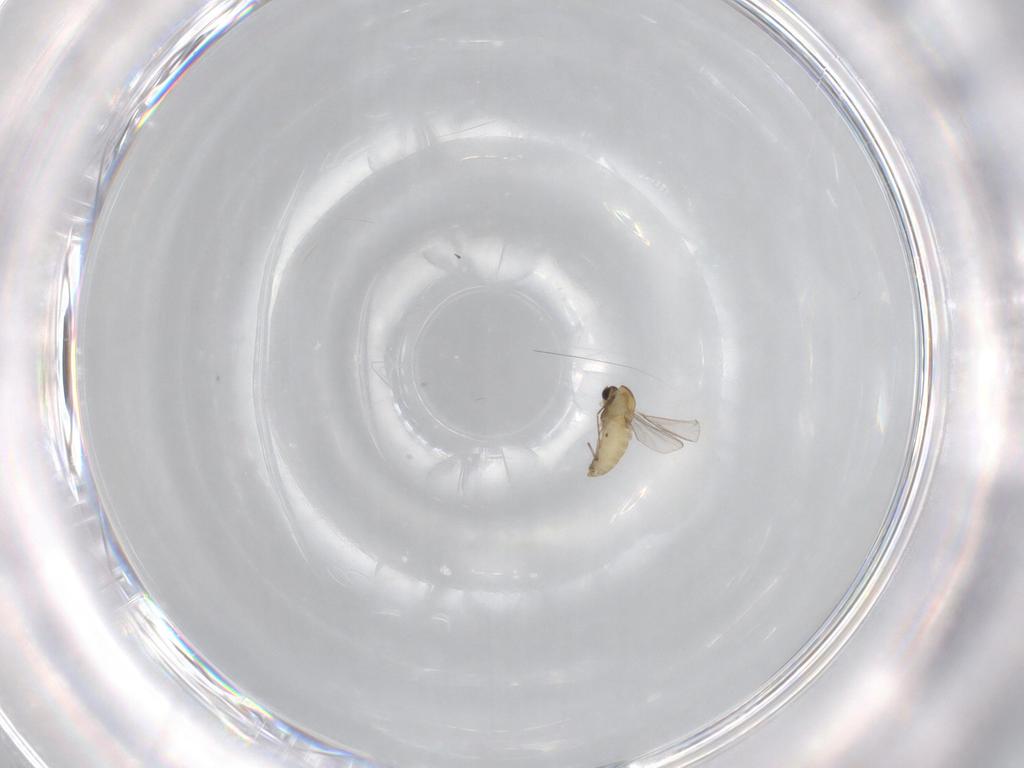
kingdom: Animalia
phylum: Arthropoda
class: Insecta
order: Diptera
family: Chironomidae
